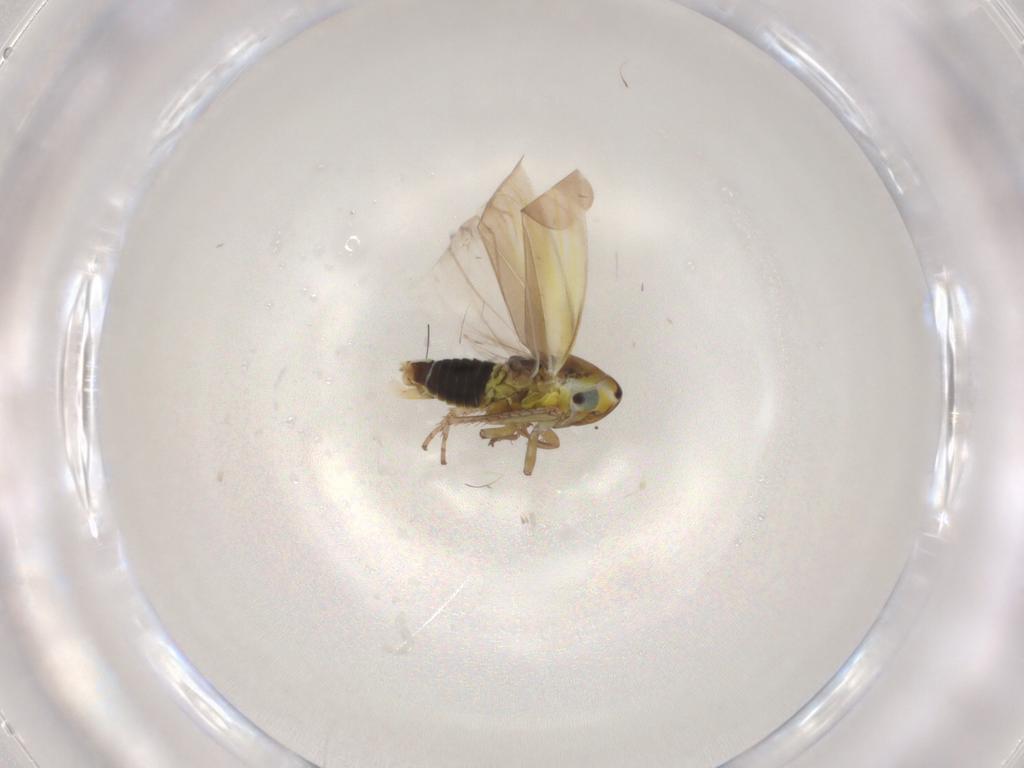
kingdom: Animalia
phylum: Arthropoda
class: Insecta
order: Hemiptera
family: Cicadellidae
